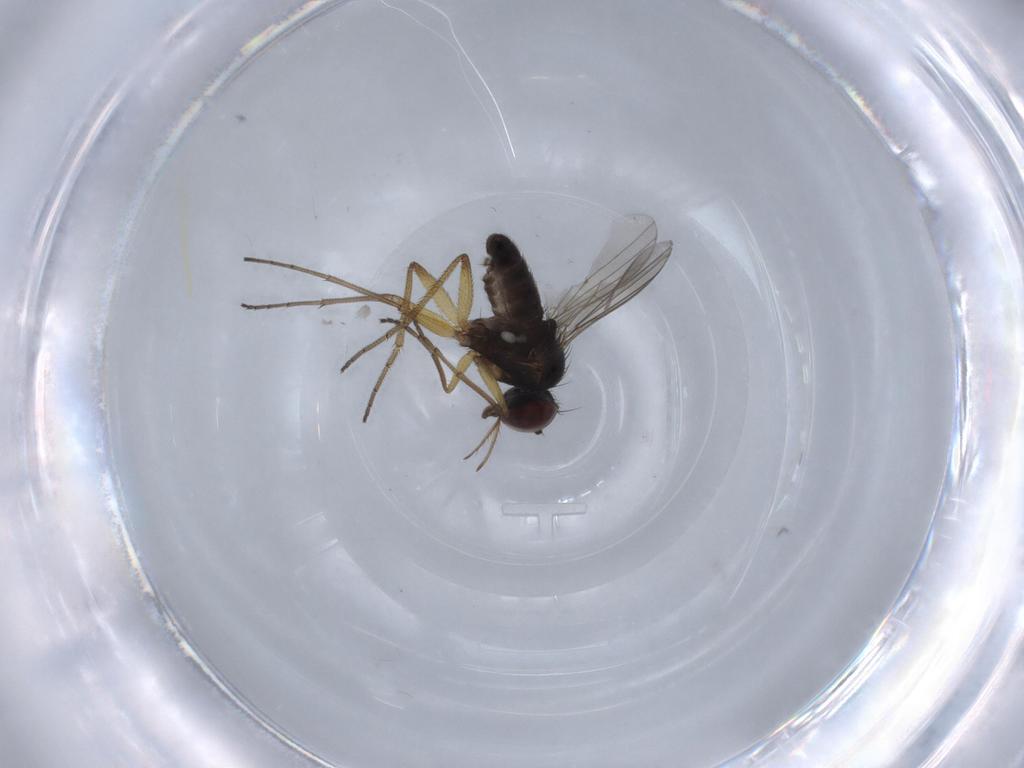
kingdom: Animalia
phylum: Arthropoda
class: Insecta
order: Diptera
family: Dolichopodidae
